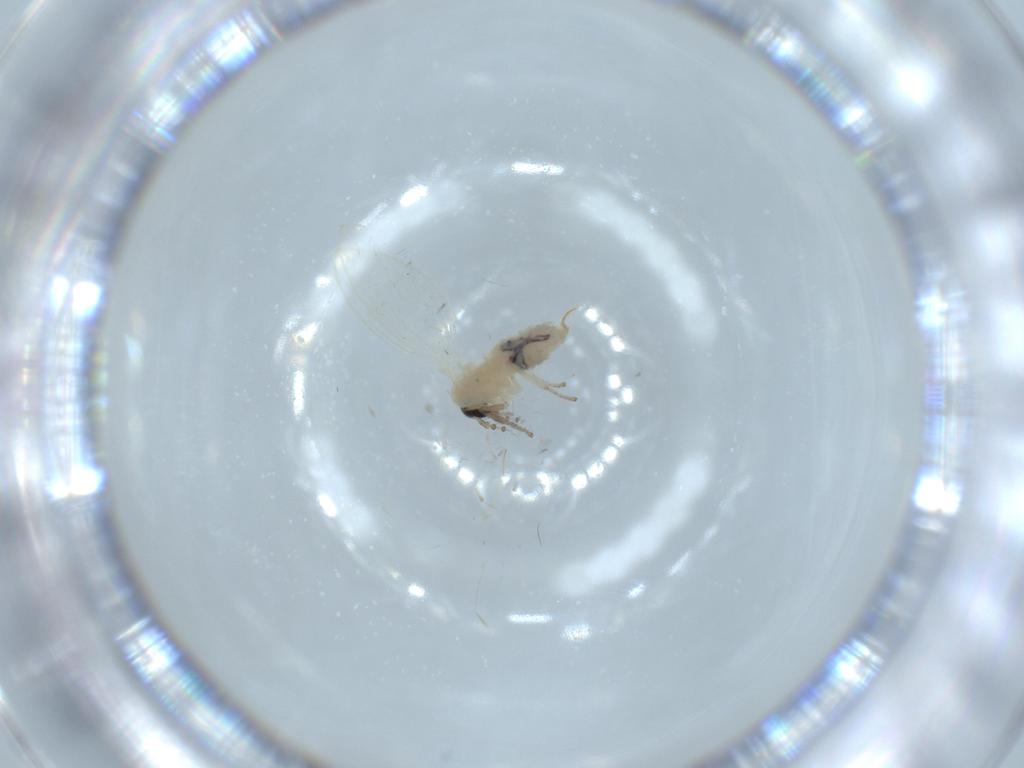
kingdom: Animalia
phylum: Arthropoda
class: Insecta
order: Diptera
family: Psychodidae
